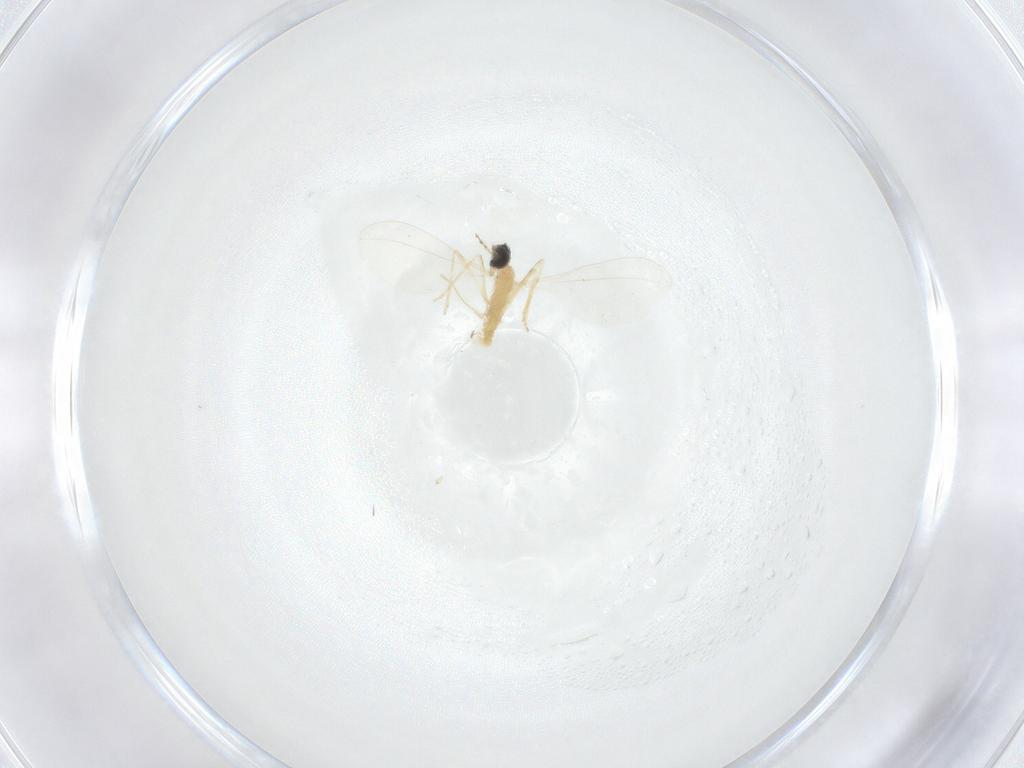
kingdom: Animalia
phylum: Arthropoda
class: Insecta
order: Diptera
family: Cecidomyiidae
